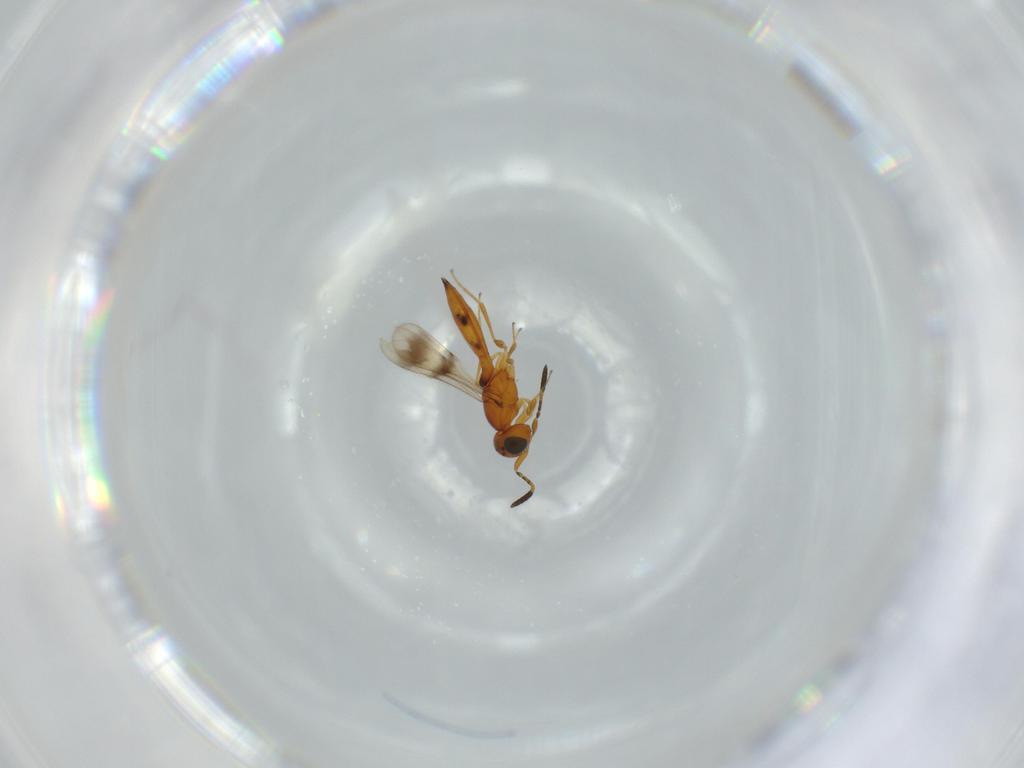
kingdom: Animalia
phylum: Arthropoda
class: Insecta
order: Hymenoptera
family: Scelionidae
